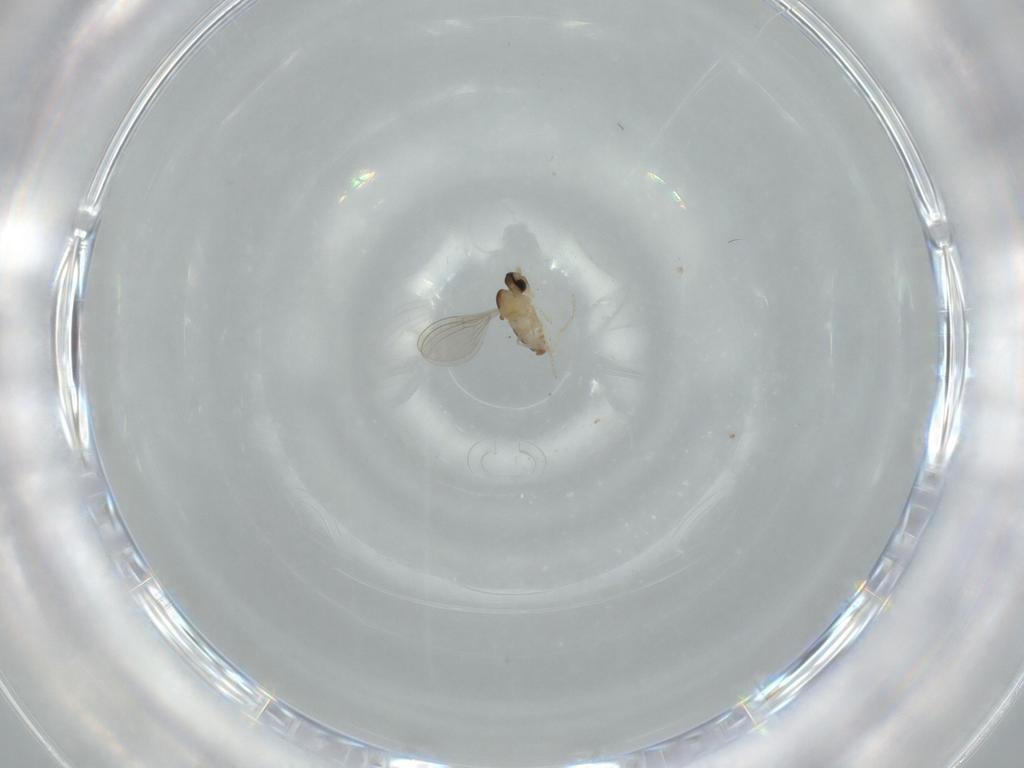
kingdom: Animalia
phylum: Arthropoda
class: Insecta
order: Diptera
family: Cecidomyiidae
